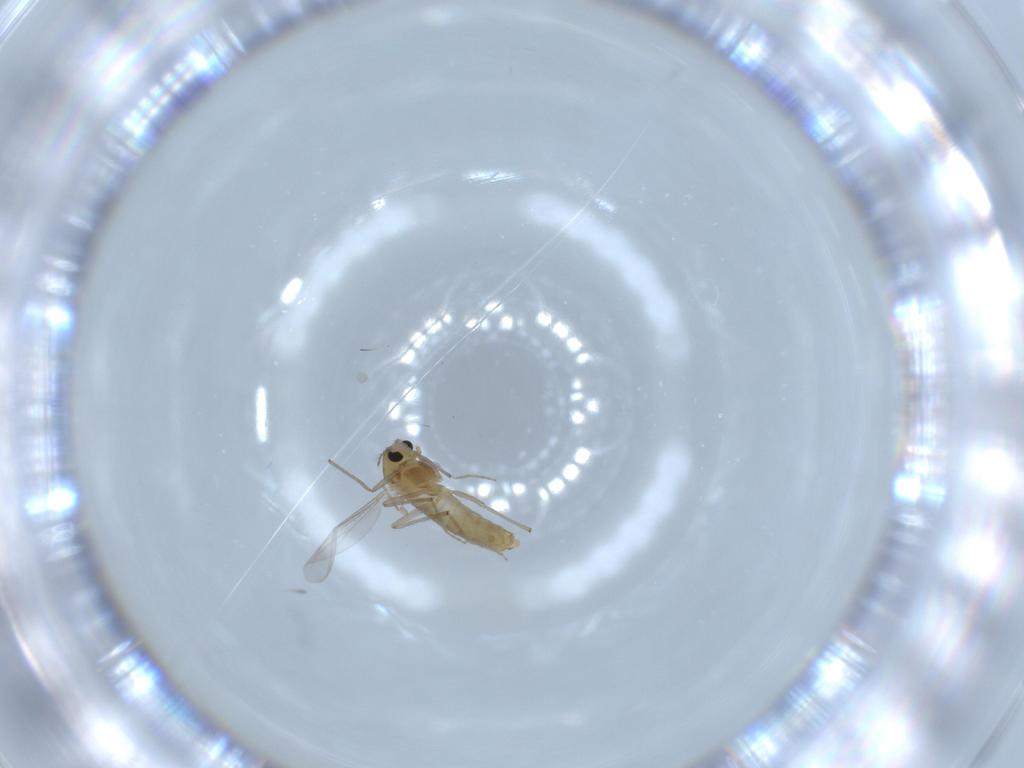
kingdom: Animalia
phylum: Arthropoda
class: Insecta
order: Diptera
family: Chironomidae
